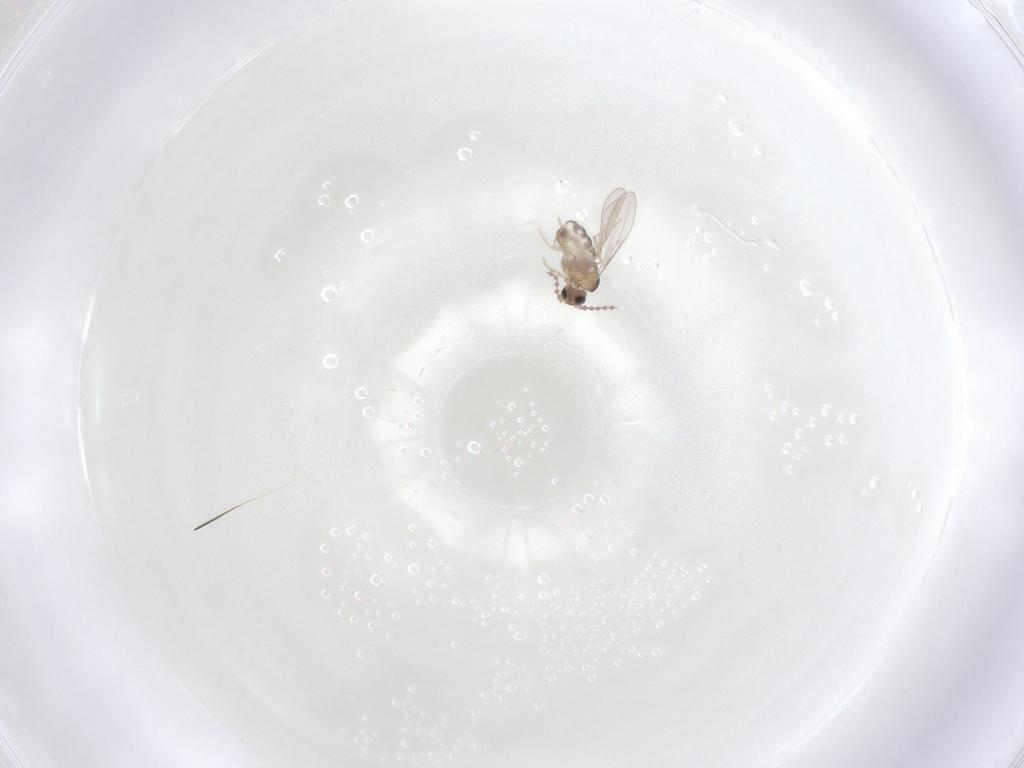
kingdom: Animalia
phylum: Arthropoda
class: Insecta
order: Diptera
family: Cecidomyiidae
